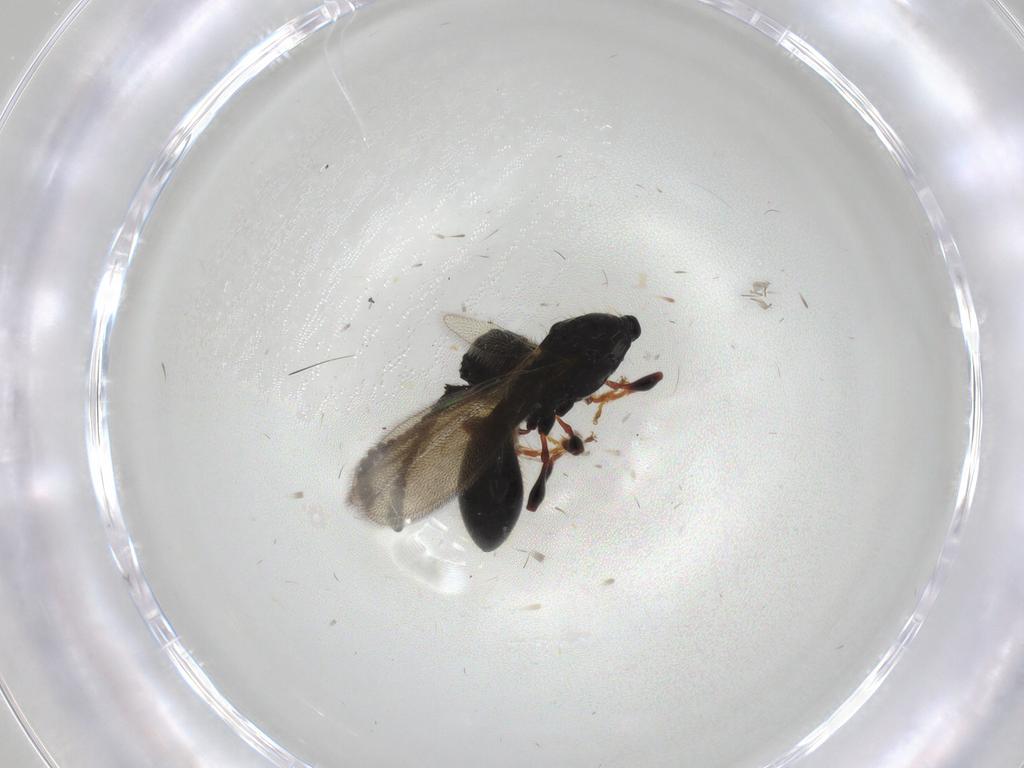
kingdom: Animalia
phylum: Arthropoda
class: Insecta
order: Hymenoptera
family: Formicidae
